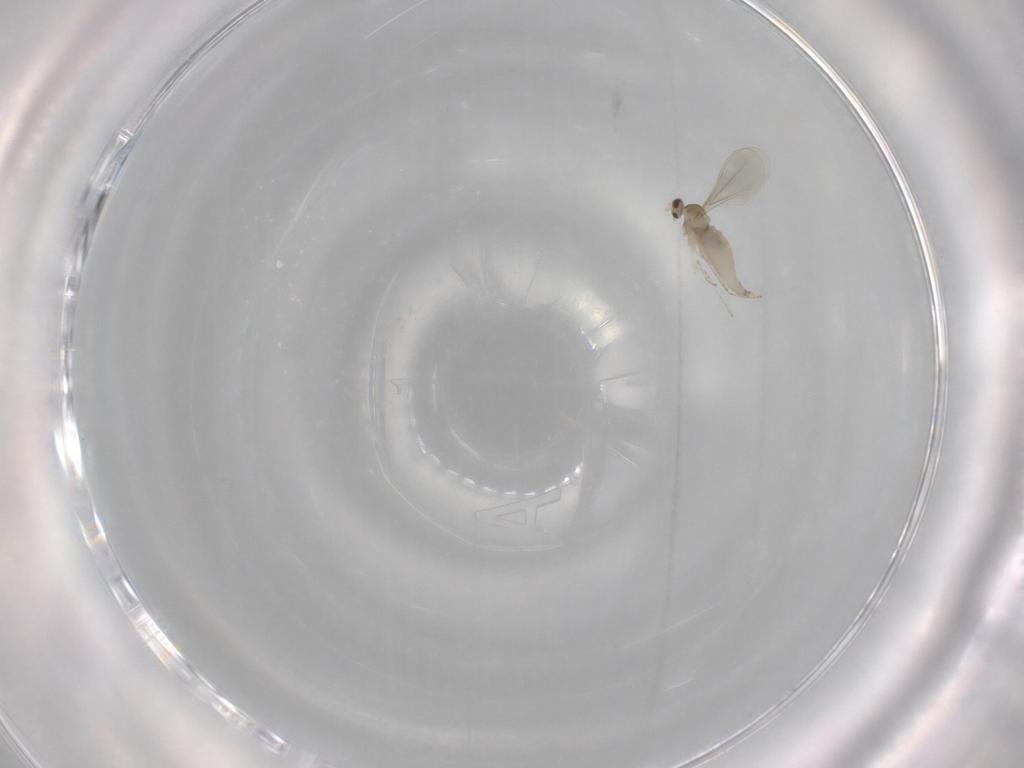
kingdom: Animalia
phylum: Arthropoda
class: Insecta
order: Diptera
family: Cecidomyiidae
